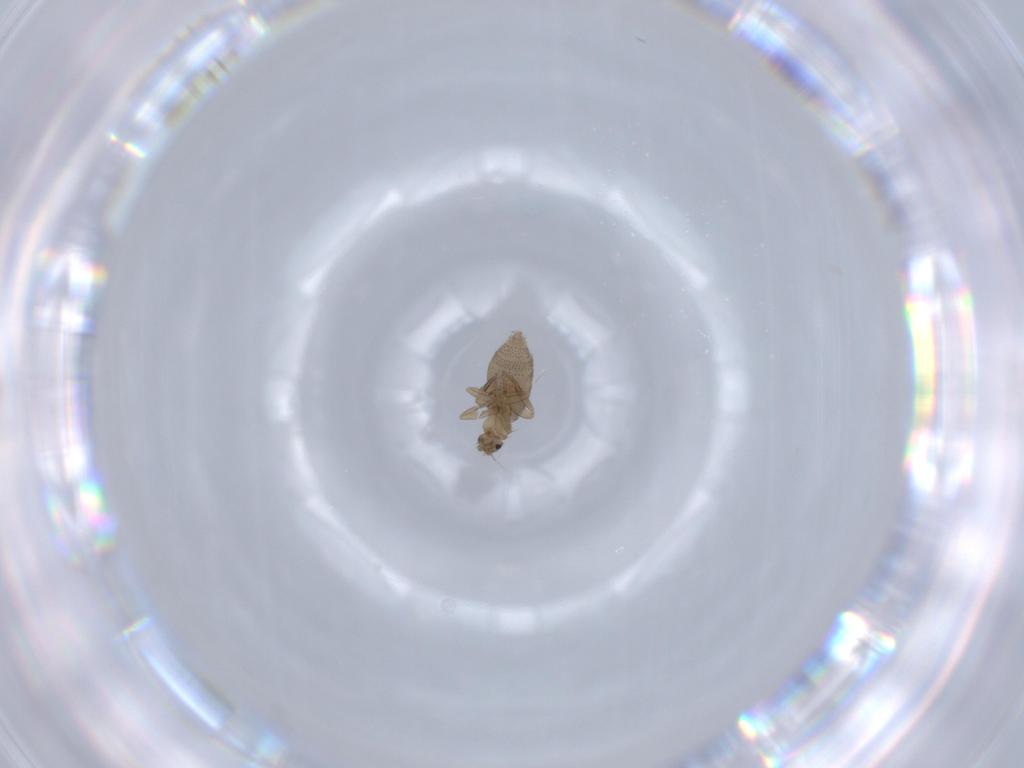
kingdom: Animalia
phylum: Arthropoda
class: Insecta
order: Diptera
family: Phoridae
